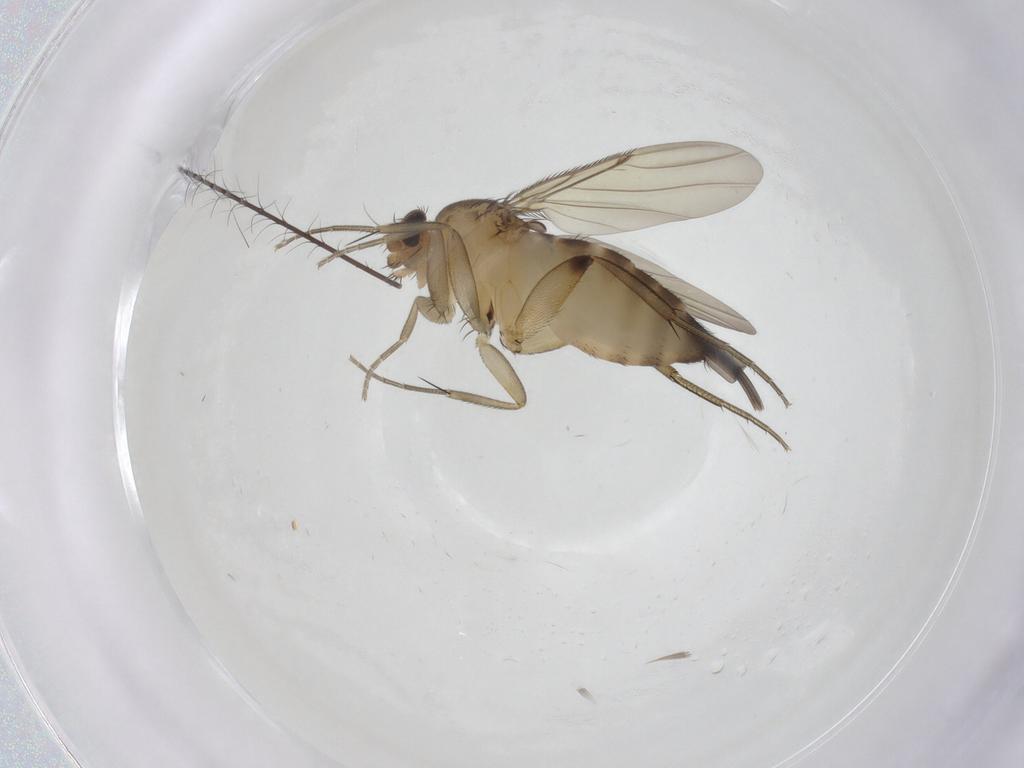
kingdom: Animalia
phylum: Arthropoda
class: Insecta
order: Diptera
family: Phoridae
